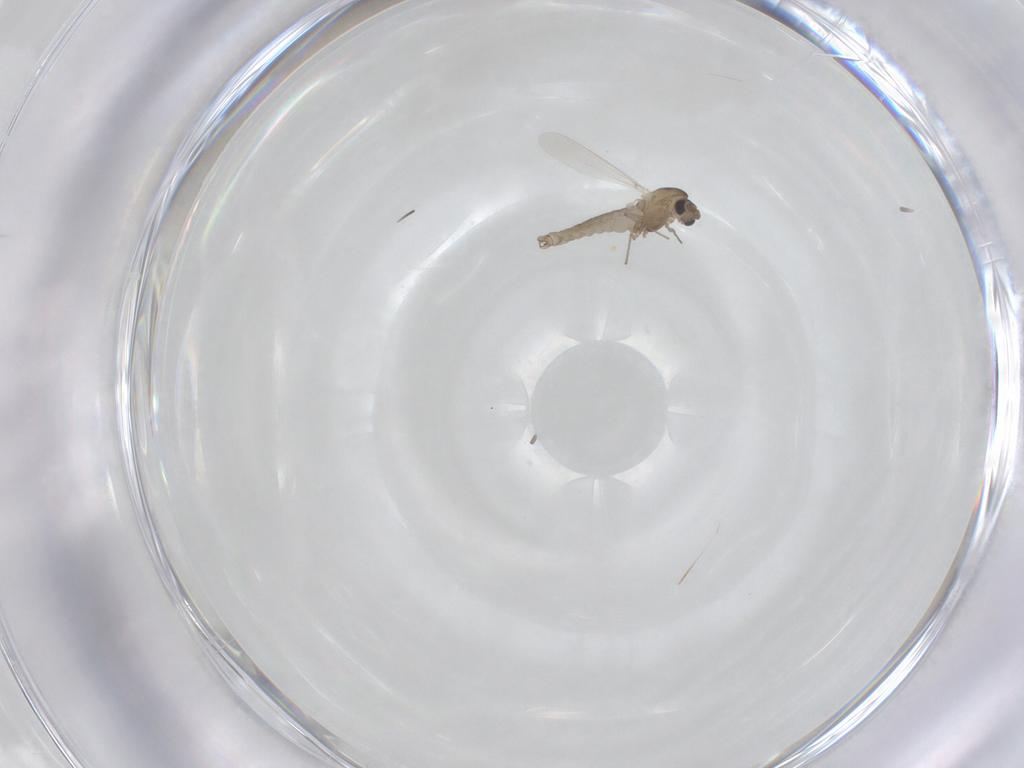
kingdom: Animalia
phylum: Arthropoda
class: Insecta
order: Diptera
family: Chironomidae
